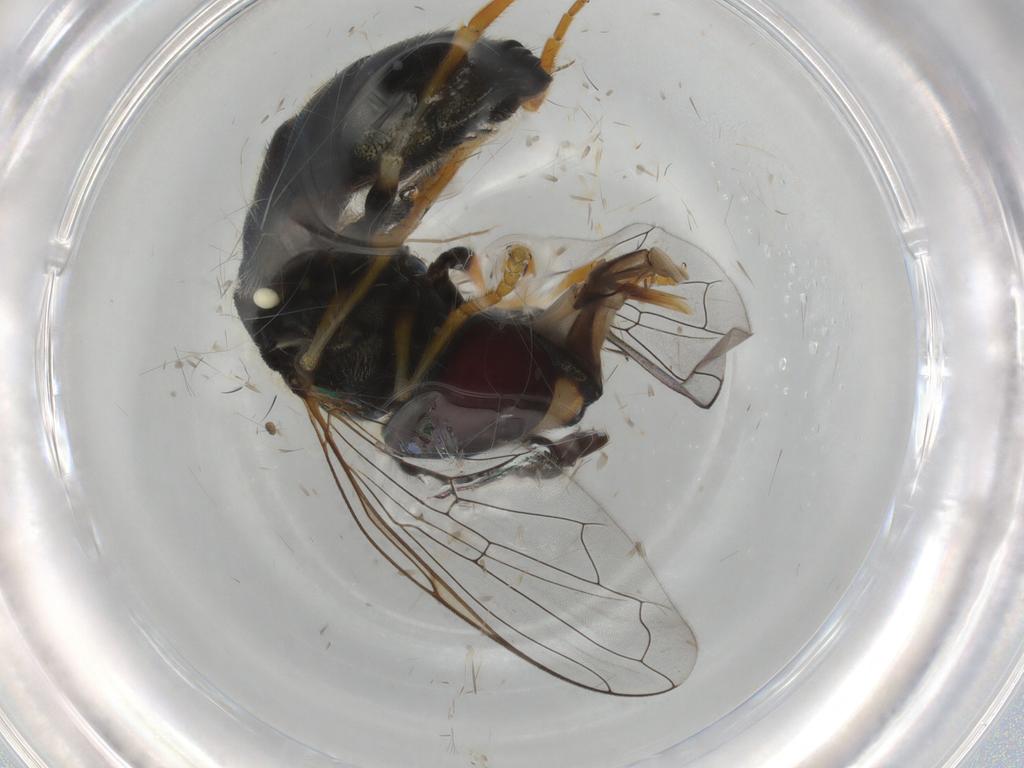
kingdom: Animalia
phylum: Arthropoda
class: Insecta
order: Diptera
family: Syrphidae
